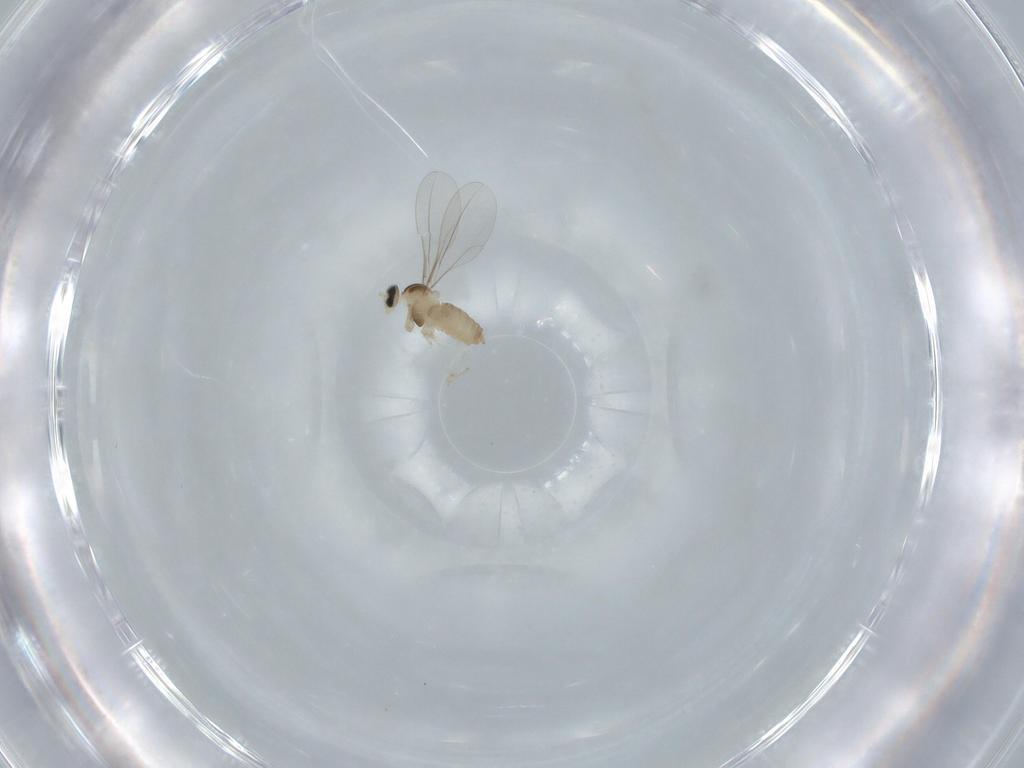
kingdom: Animalia
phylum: Arthropoda
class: Insecta
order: Diptera
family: Cecidomyiidae
